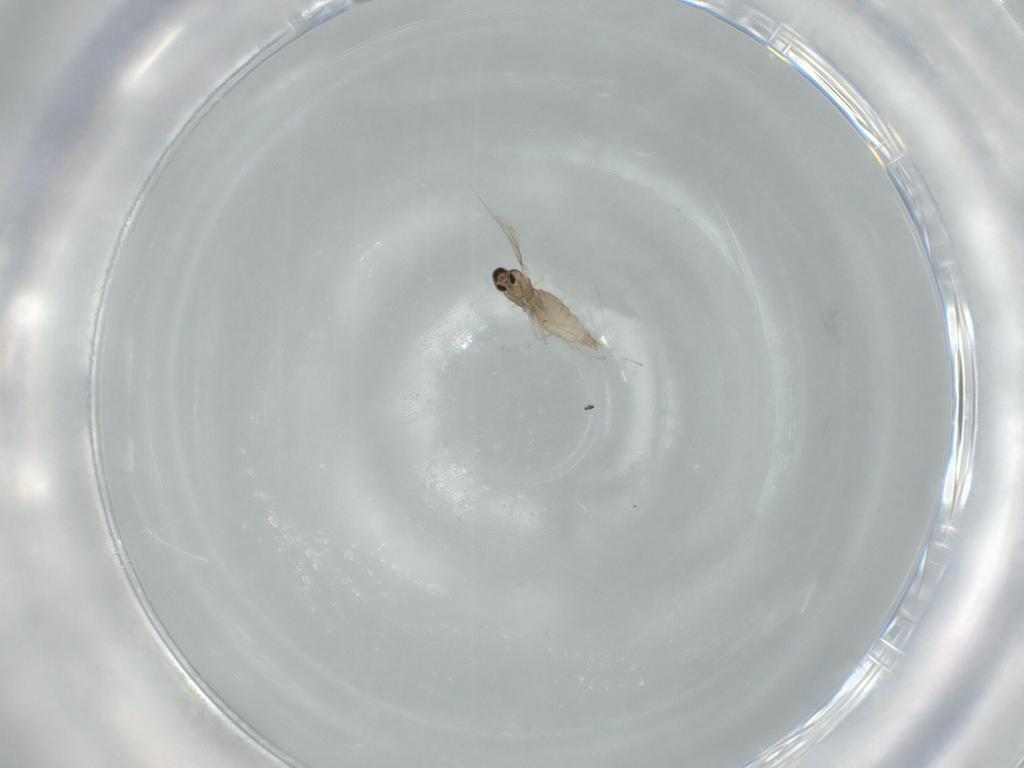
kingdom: Animalia
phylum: Arthropoda
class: Insecta
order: Diptera
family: Cecidomyiidae
